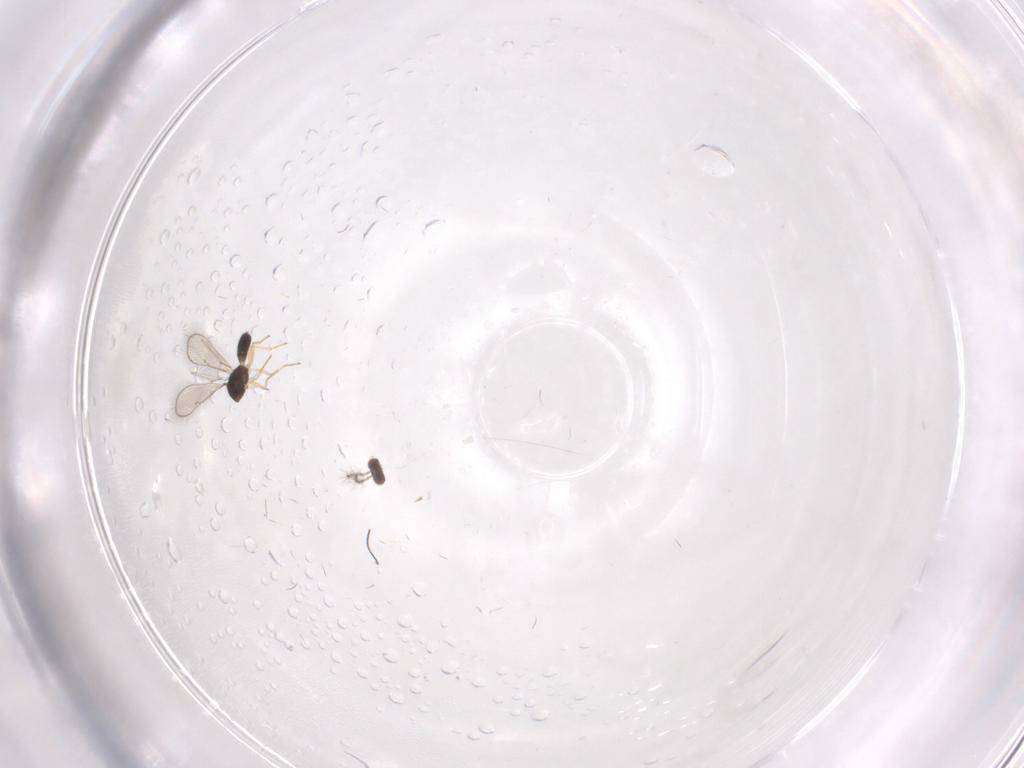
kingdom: Animalia
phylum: Arthropoda
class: Insecta
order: Hymenoptera
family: Eulophidae
